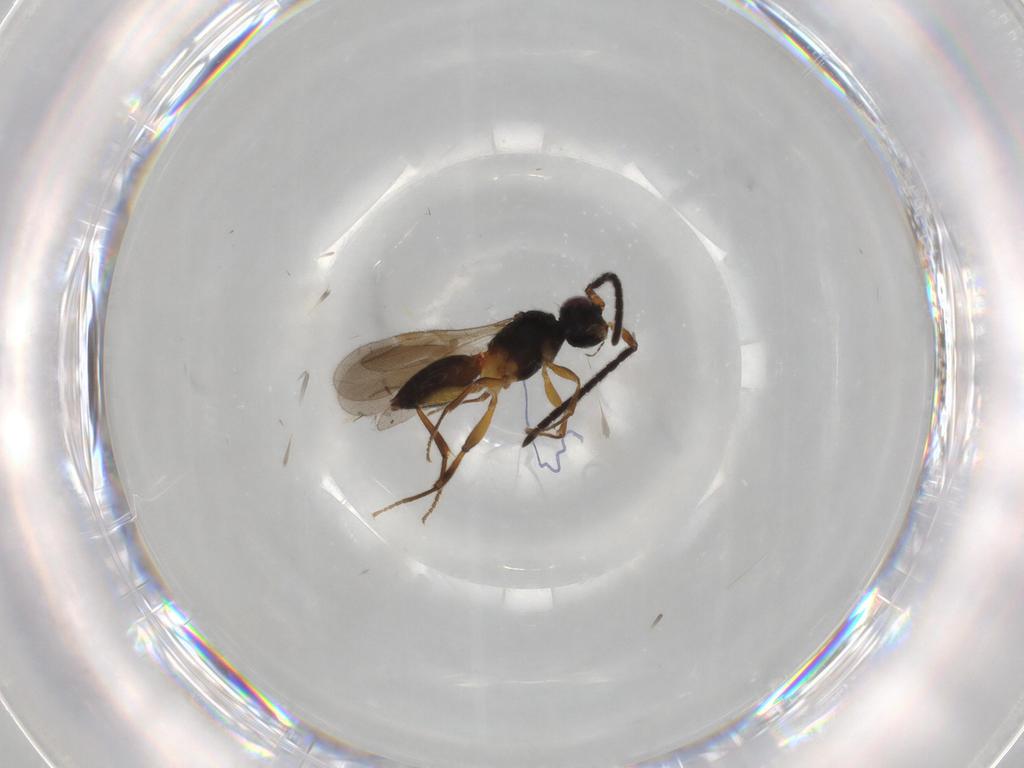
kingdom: Animalia
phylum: Arthropoda
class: Insecta
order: Hymenoptera
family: Megaspilidae
